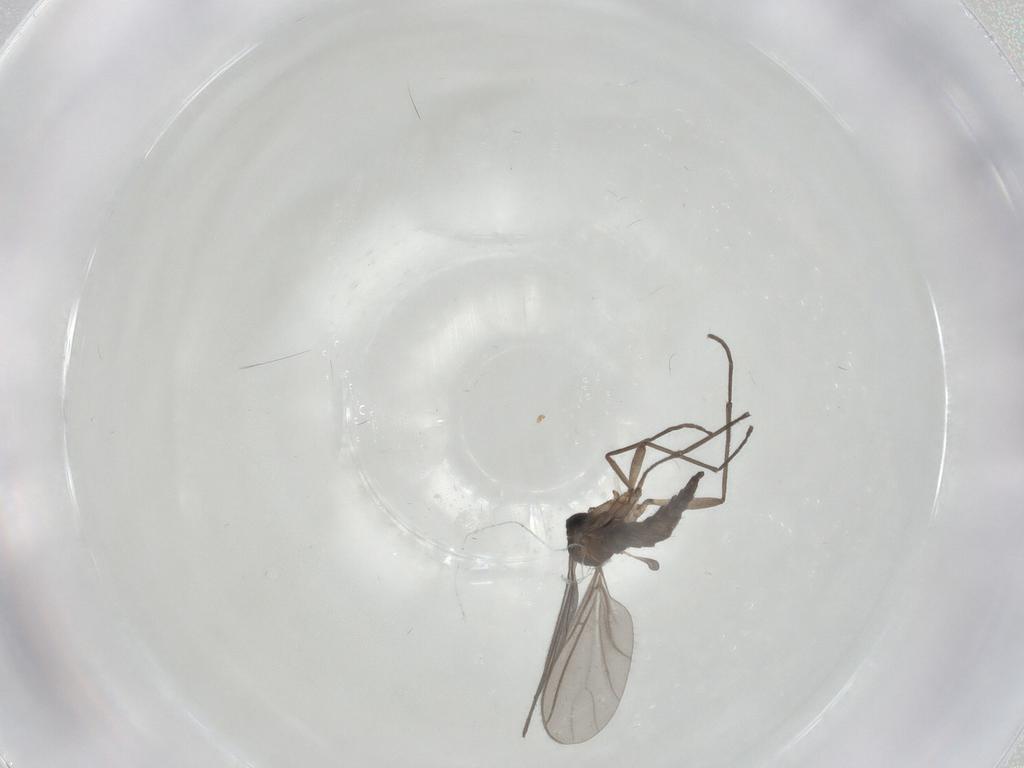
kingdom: Animalia
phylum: Arthropoda
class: Insecta
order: Diptera
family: Sciaridae
